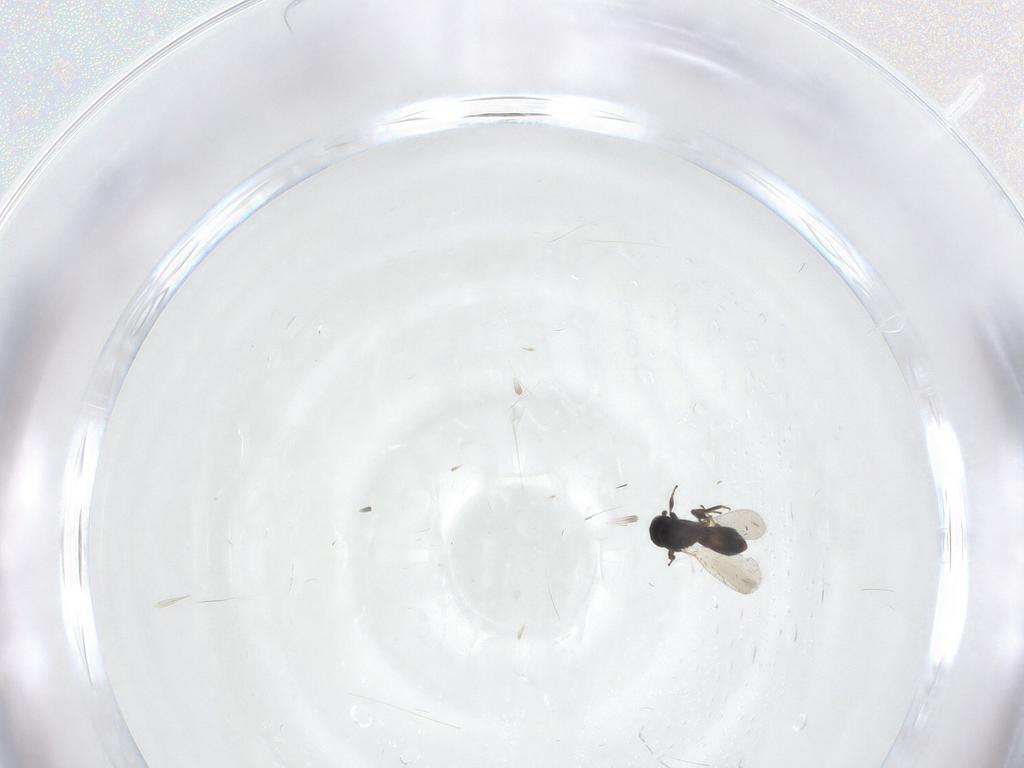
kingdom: Animalia
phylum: Arthropoda
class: Insecta
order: Hymenoptera
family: Platygastridae
